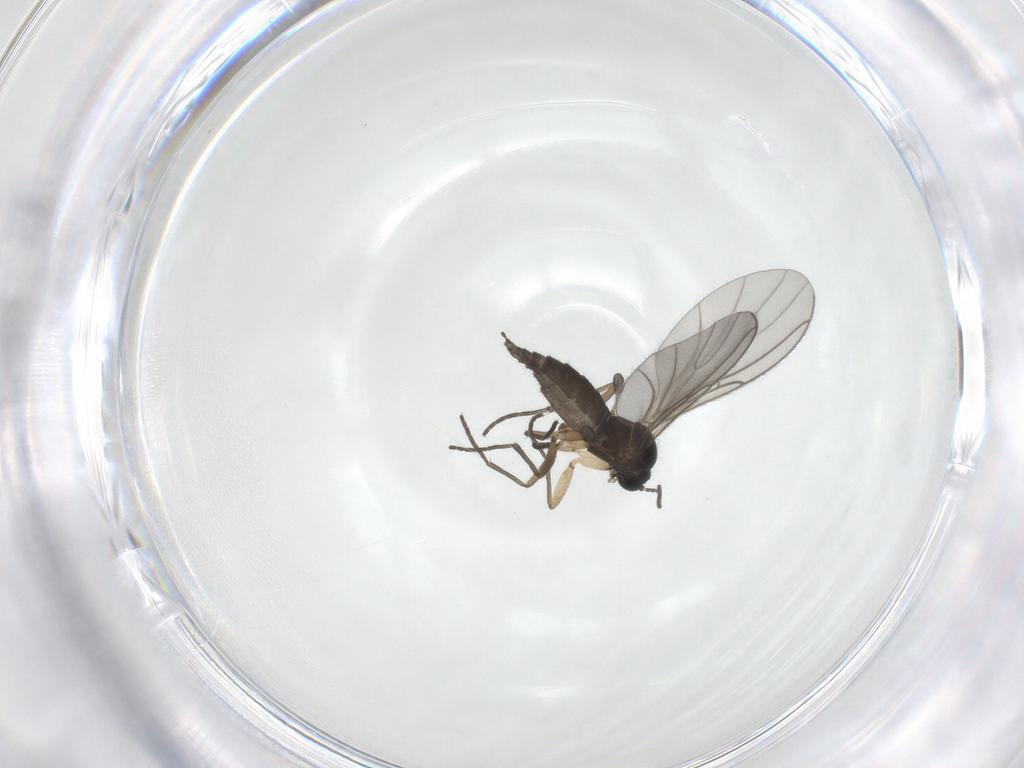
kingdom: Animalia
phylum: Arthropoda
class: Insecta
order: Diptera
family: Sciaridae
